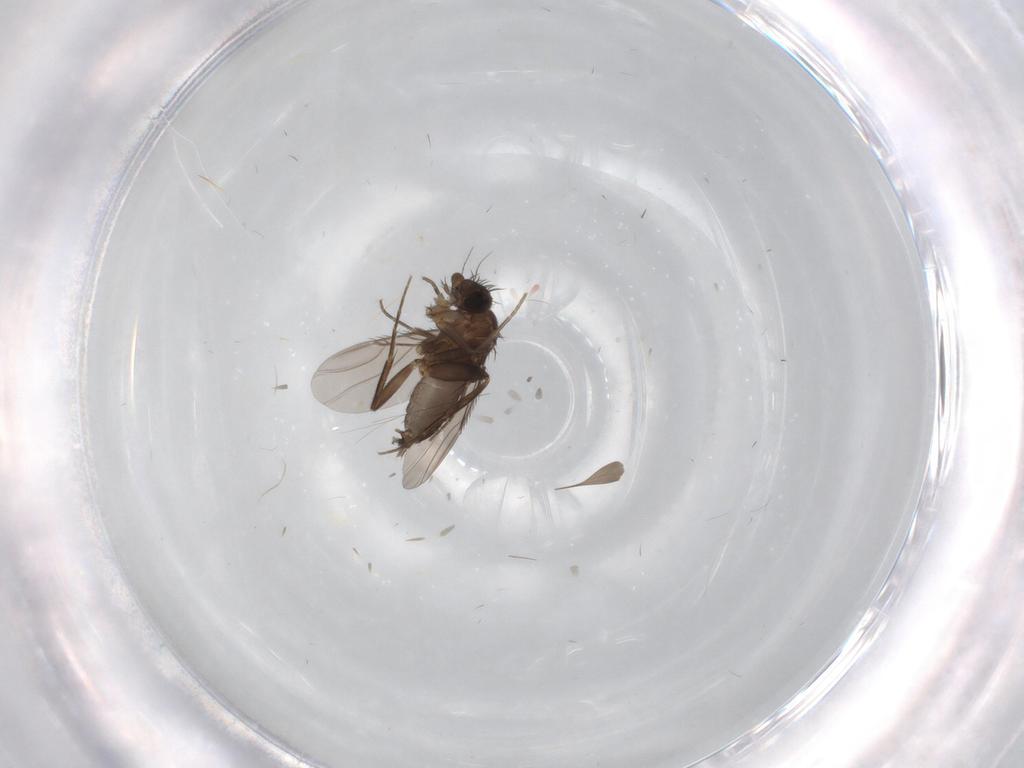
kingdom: Animalia
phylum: Arthropoda
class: Insecta
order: Diptera
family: Phoridae
